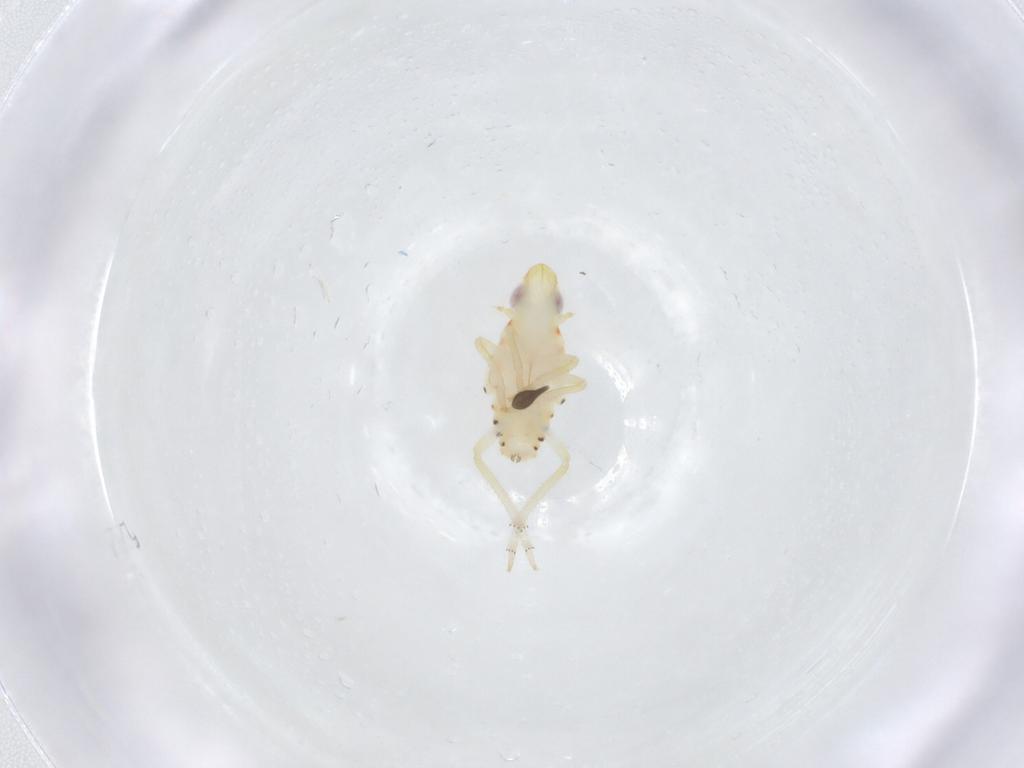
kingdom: Animalia
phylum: Arthropoda
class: Insecta
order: Hemiptera
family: Tropiduchidae
